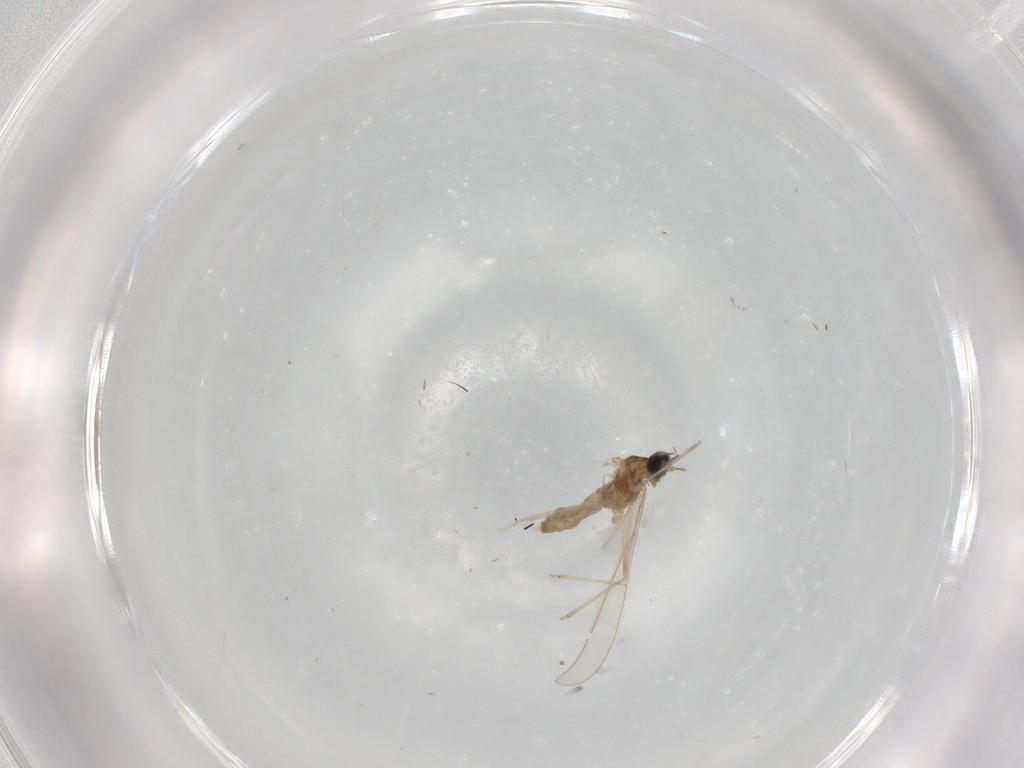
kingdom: Animalia
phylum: Arthropoda
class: Insecta
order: Diptera
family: Cecidomyiidae
